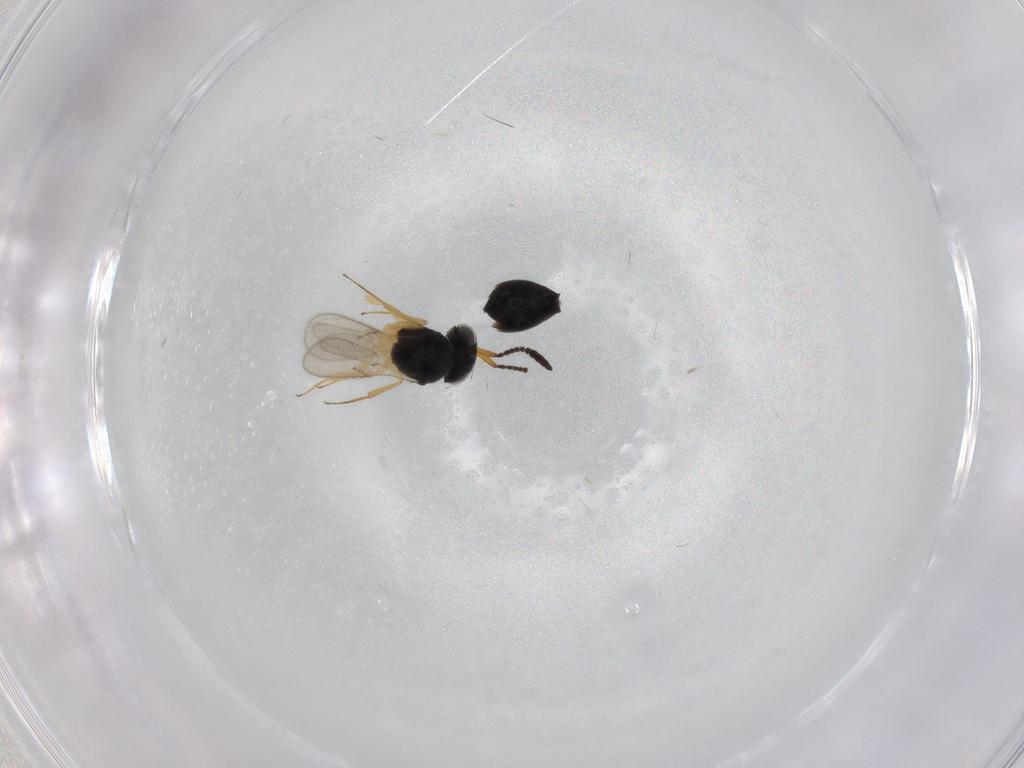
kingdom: Animalia
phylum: Arthropoda
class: Insecta
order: Hymenoptera
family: Scelionidae
